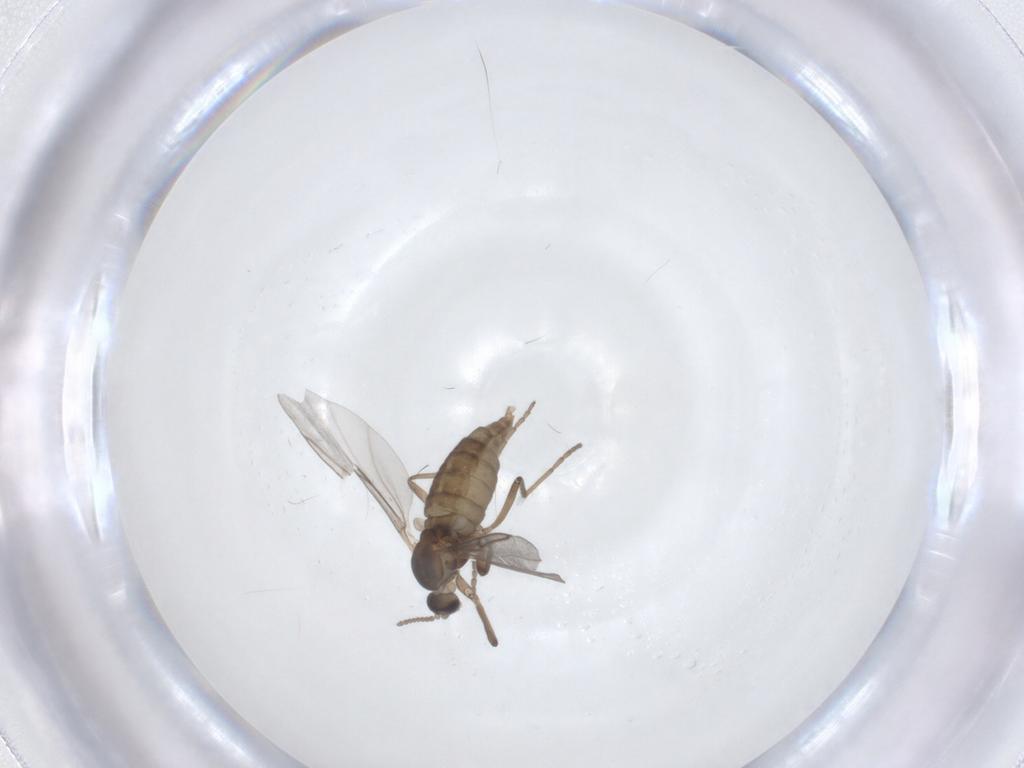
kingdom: Animalia
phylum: Arthropoda
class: Insecta
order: Diptera
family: Cecidomyiidae
